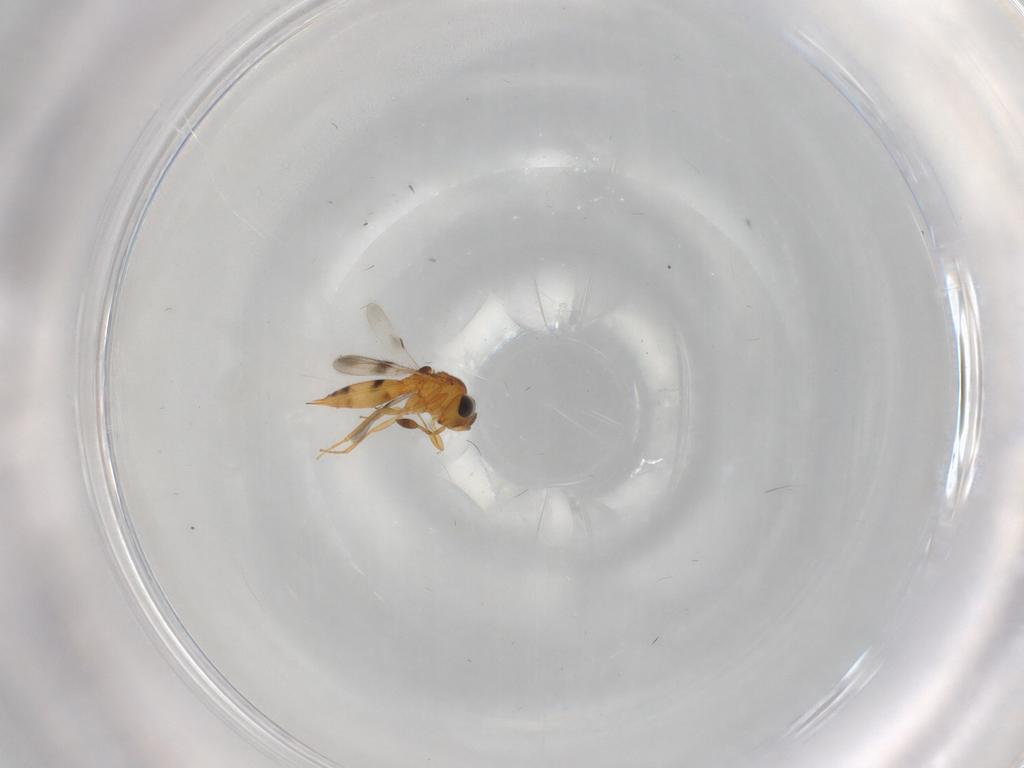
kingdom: Animalia
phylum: Arthropoda
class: Insecta
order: Hymenoptera
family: Scelionidae
